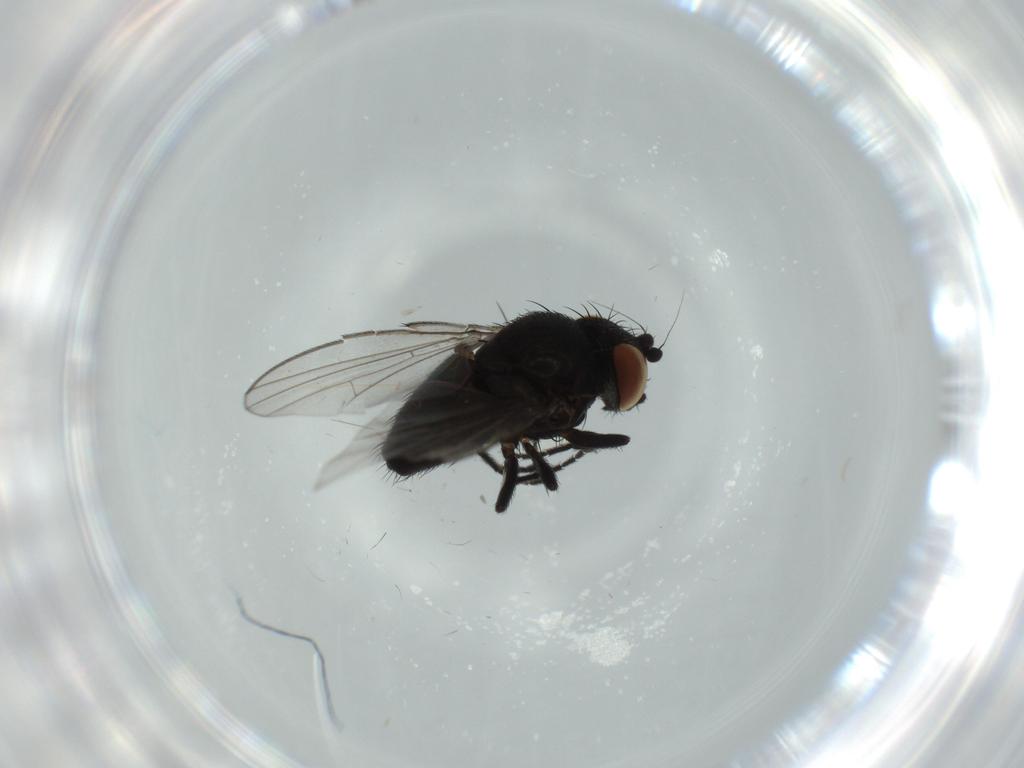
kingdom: Animalia
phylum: Arthropoda
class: Insecta
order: Diptera
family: Milichiidae
